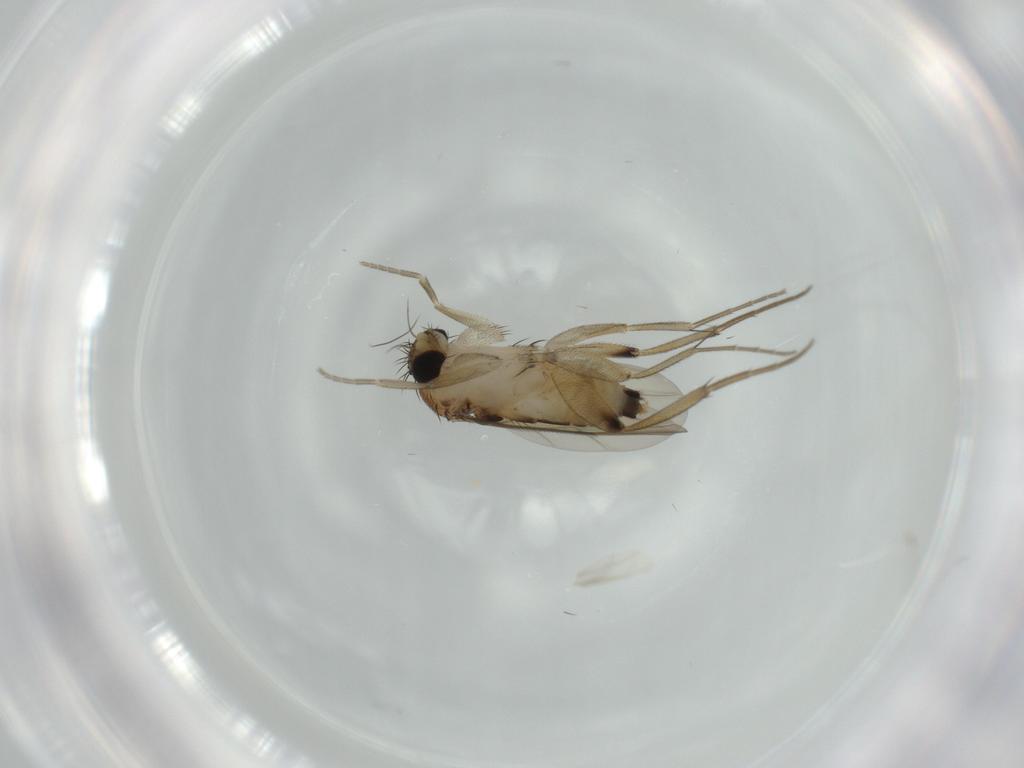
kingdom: Animalia
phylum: Arthropoda
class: Insecta
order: Diptera
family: Phoridae
